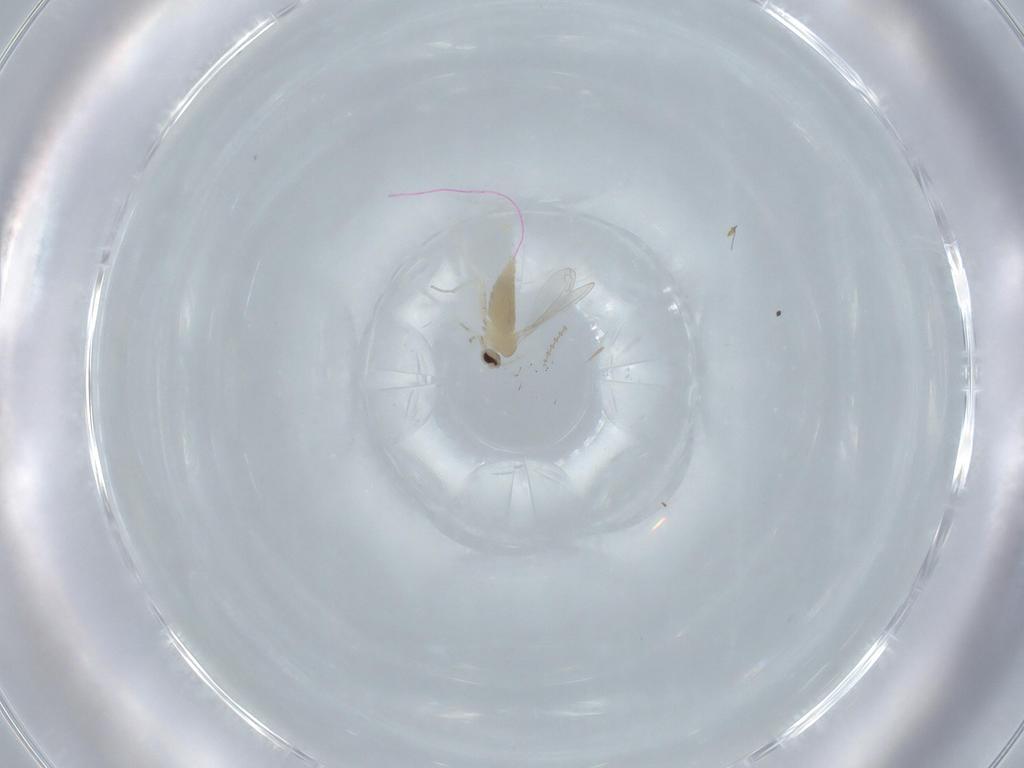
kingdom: Animalia
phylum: Arthropoda
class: Insecta
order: Diptera
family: Cecidomyiidae
